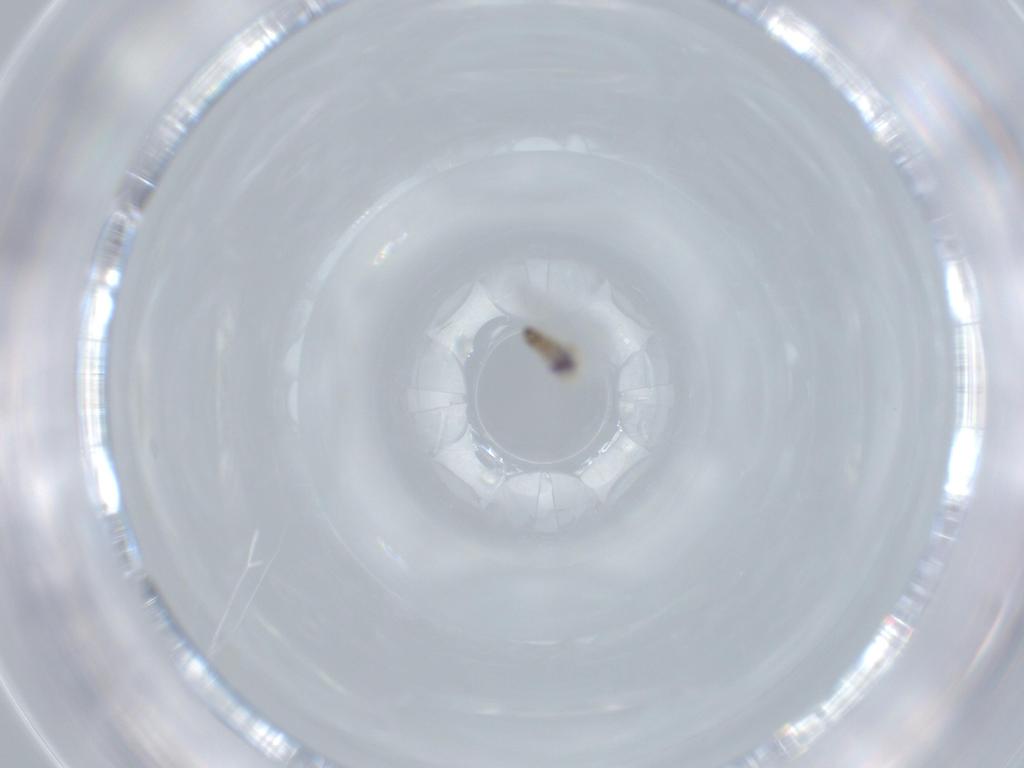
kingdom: Animalia
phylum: Arthropoda
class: Insecta
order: Diptera
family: Cecidomyiidae
